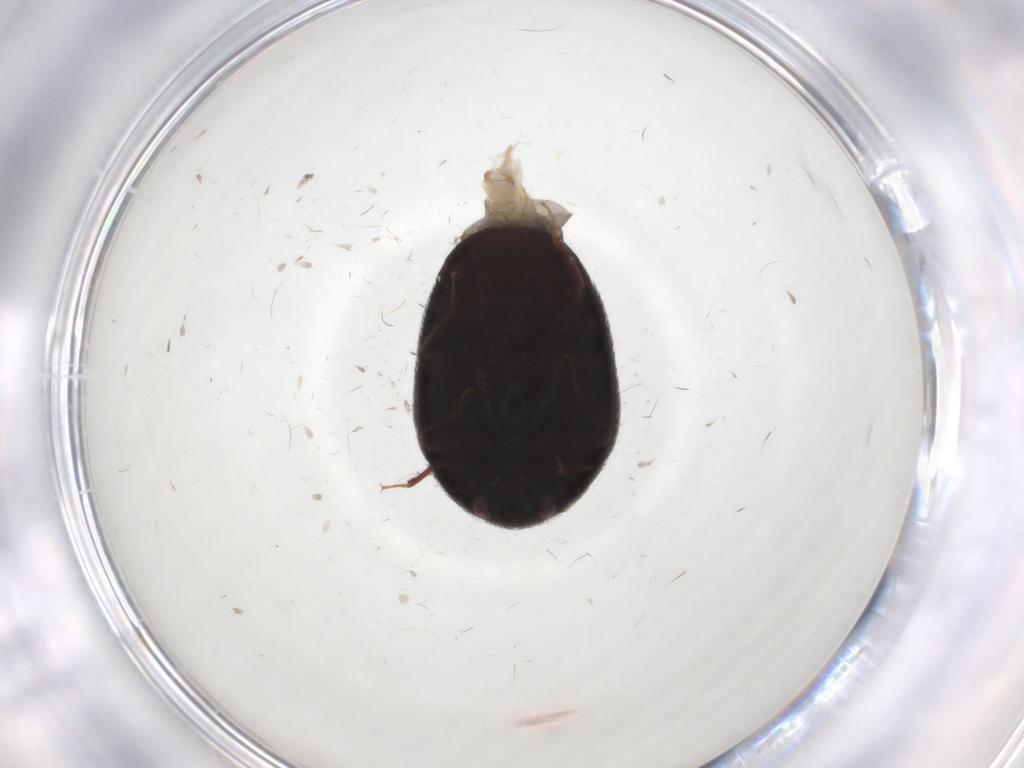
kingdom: Animalia
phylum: Arthropoda
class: Insecta
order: Coleoptera
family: Dermestidae
